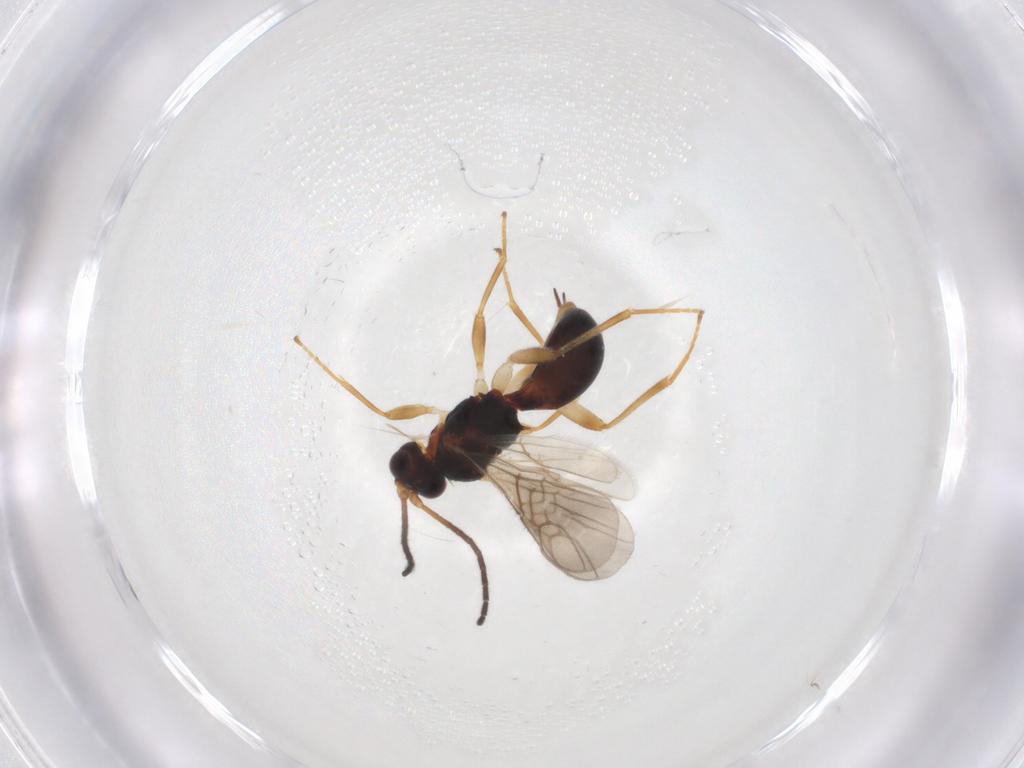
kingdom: Animalia
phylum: Arthropoda
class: Insecta
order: Hymenoptera
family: Braconidae
